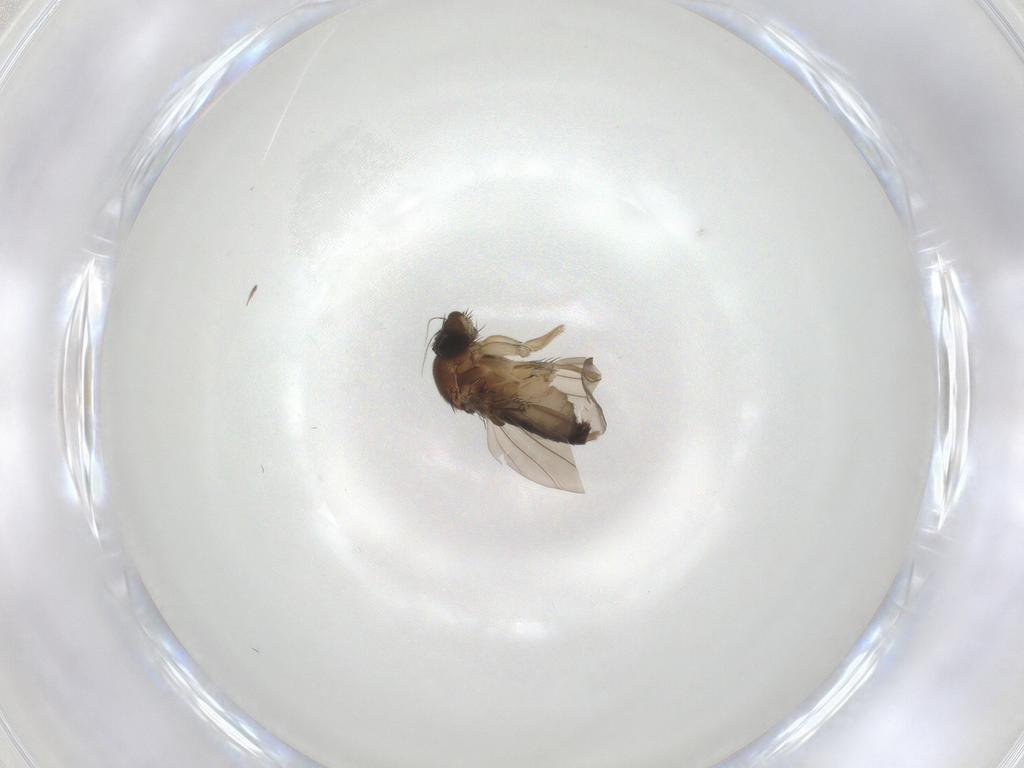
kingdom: Animalia
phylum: Arthropoda
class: Insecta
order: Diptera
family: Phoridae
